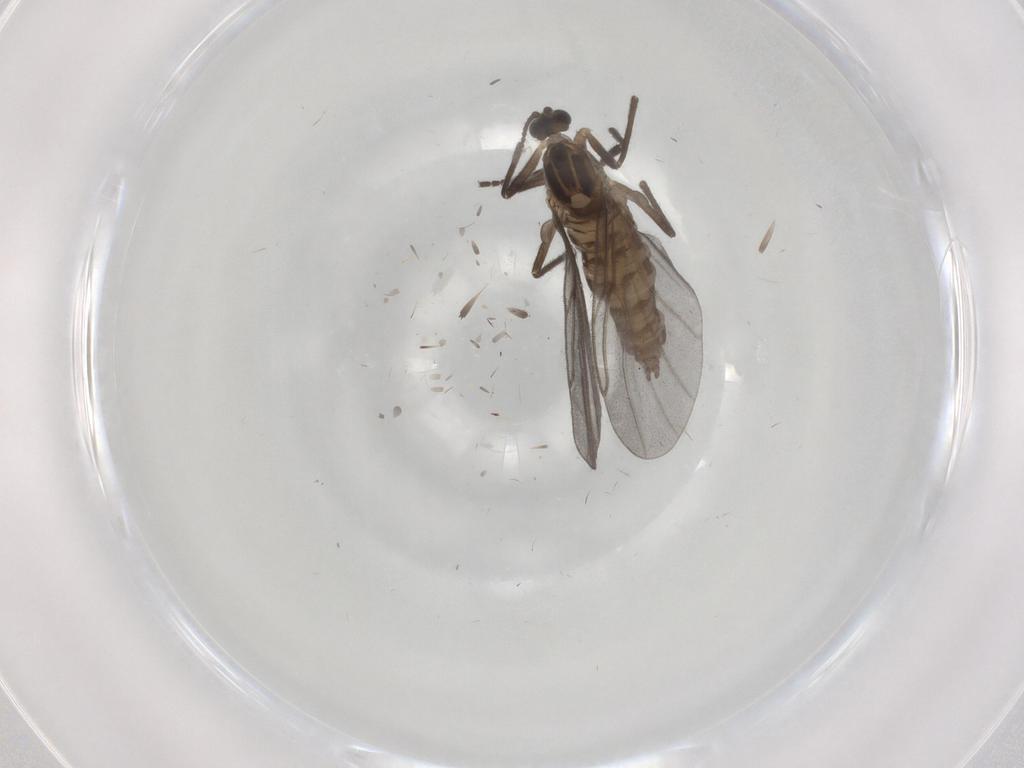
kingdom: Animalia
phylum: Arthropoda
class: Insecta
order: Diptera
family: Cecidomyiidae
